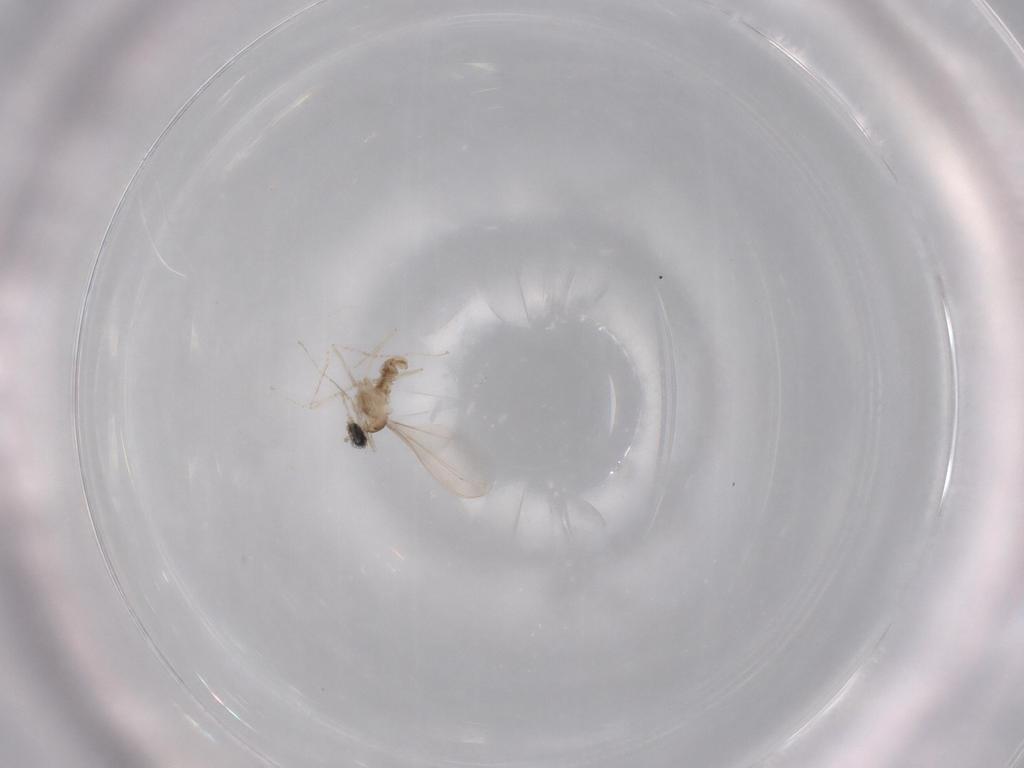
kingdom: Animalia
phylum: Arthropoda
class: Insecta
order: Diptera
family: Cecidomyiidae
